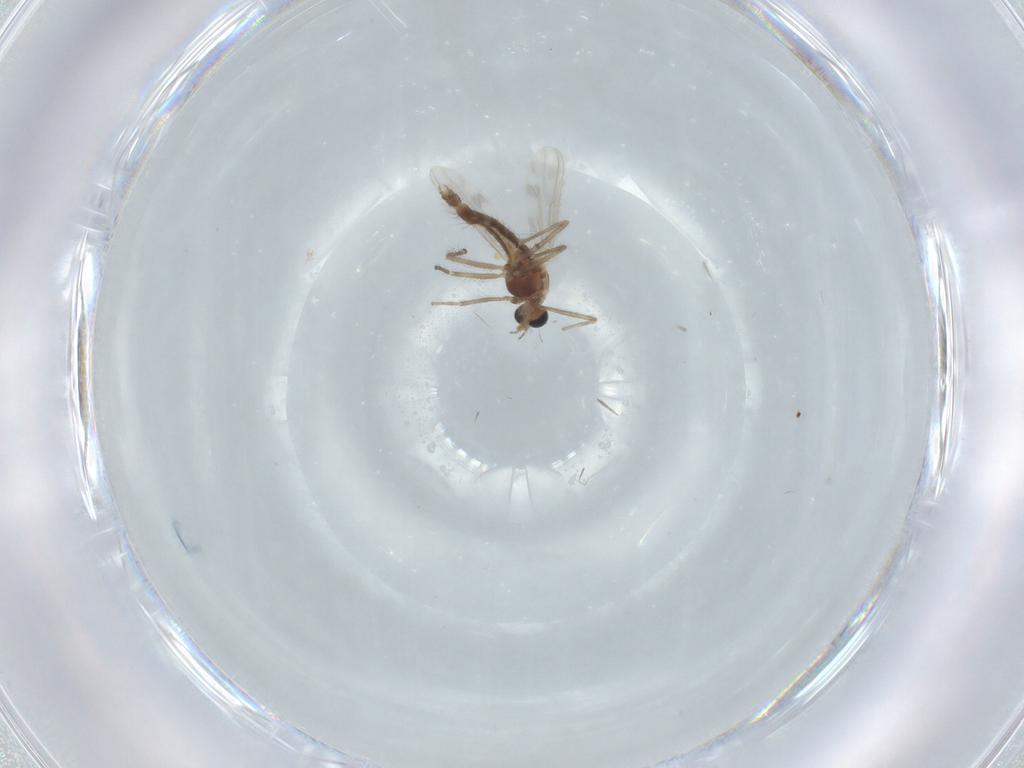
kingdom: Animalia
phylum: Arthropoda
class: Insecta
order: Diptera
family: Chironomidae
